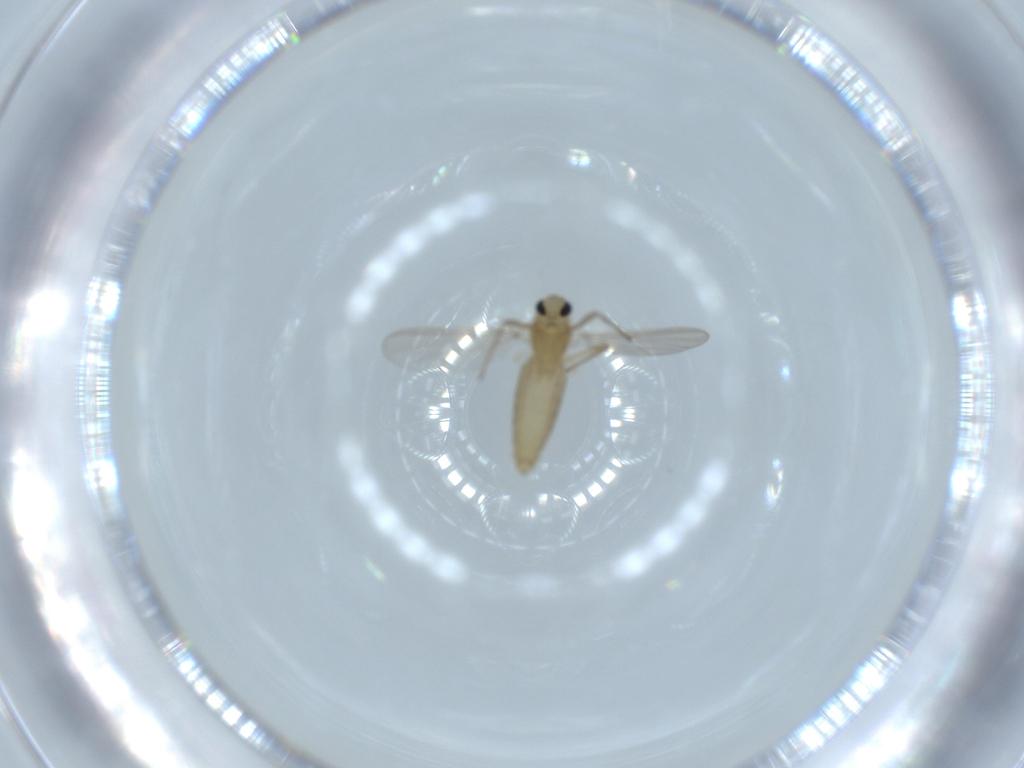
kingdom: Animalia
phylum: Arthropoda
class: Insecta
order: Diptera
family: Chironomidae
